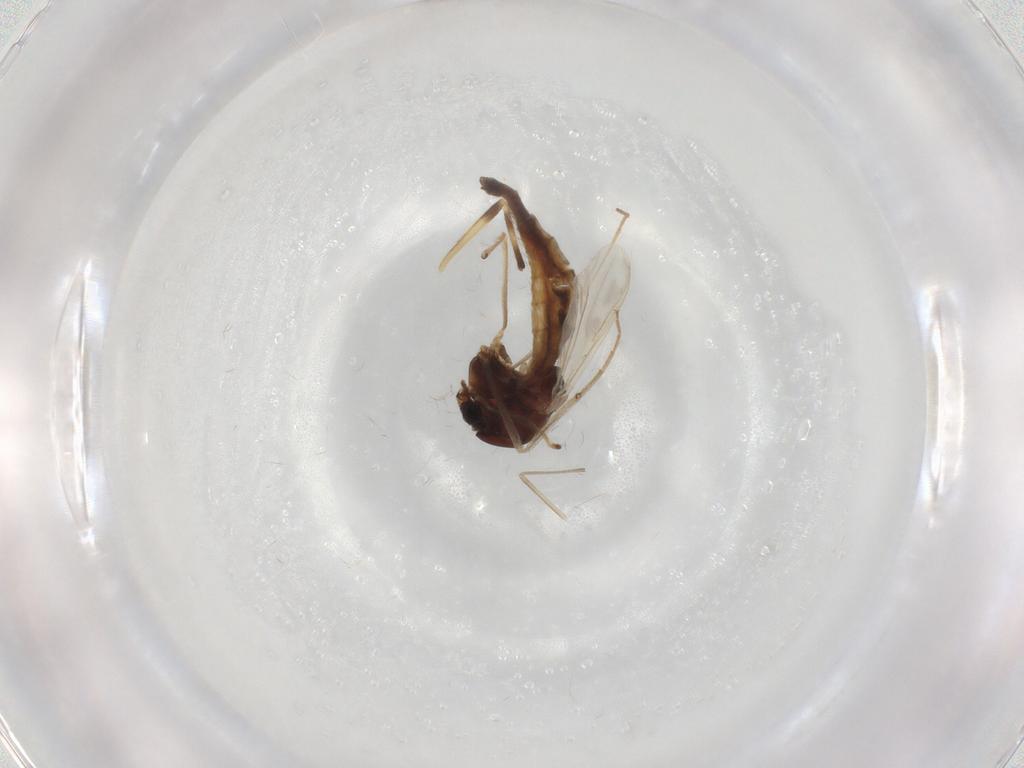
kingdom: Animalia
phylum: Arthropoda
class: Insecta
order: Diptera
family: Chironomidae
